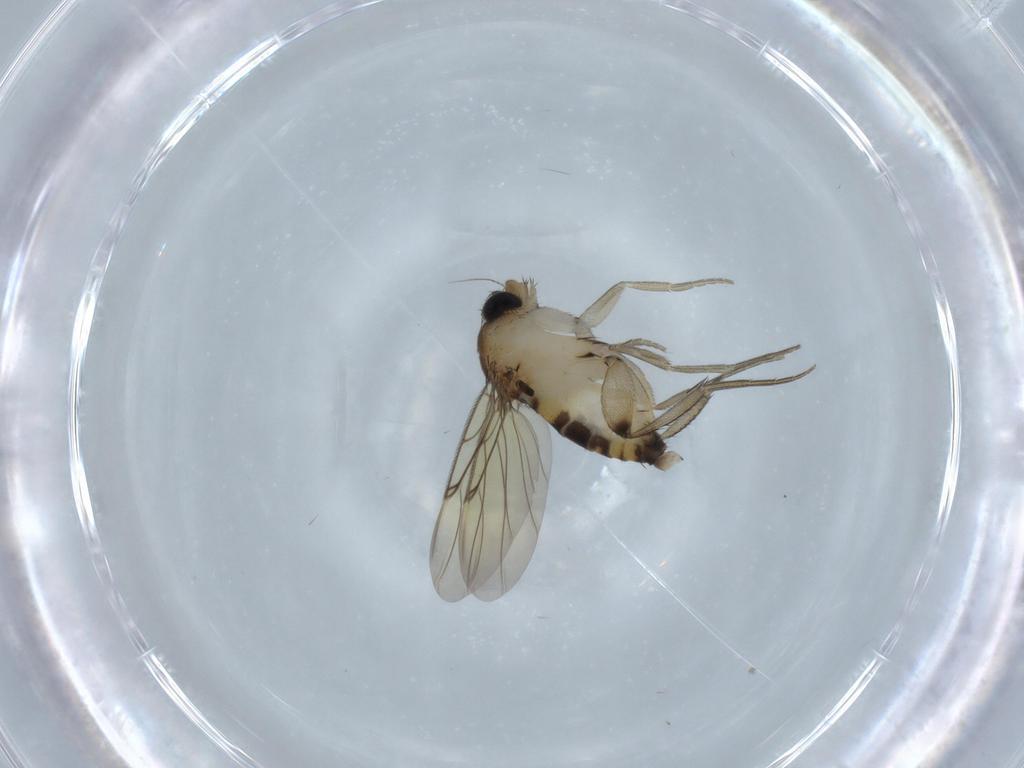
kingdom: Animalia
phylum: Arthropoda
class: Insecta
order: Diptera
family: Phoridae
